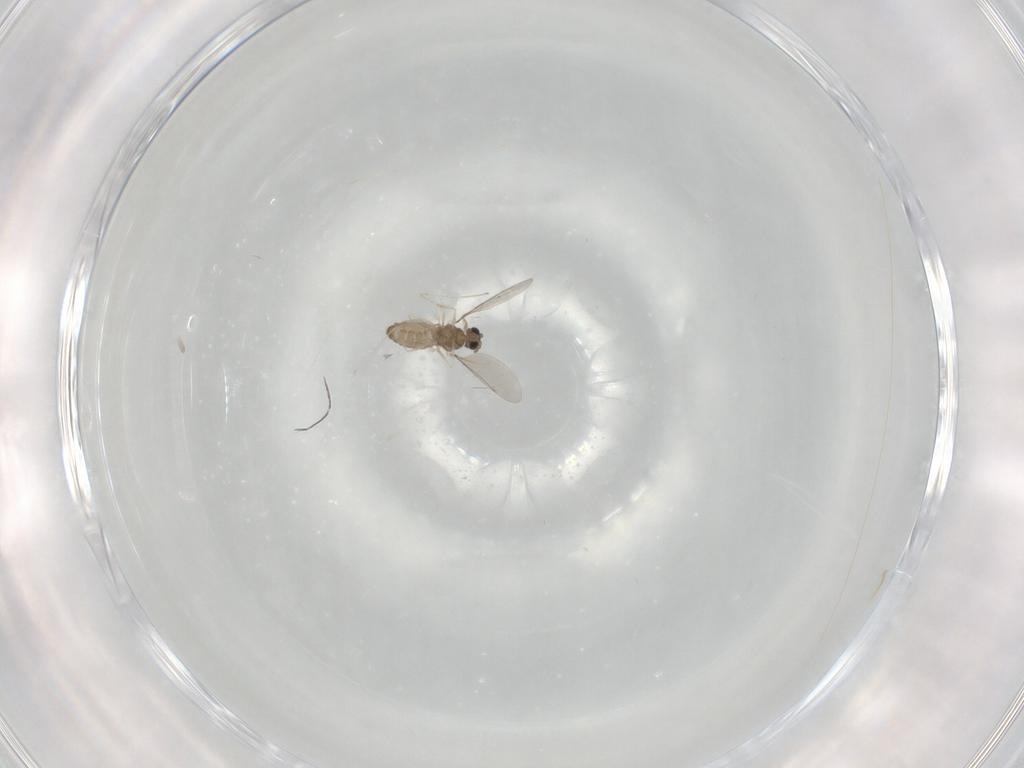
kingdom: Animalia
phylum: Arthropoda
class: Insecta
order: Diptera
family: Cecidomyiidae
